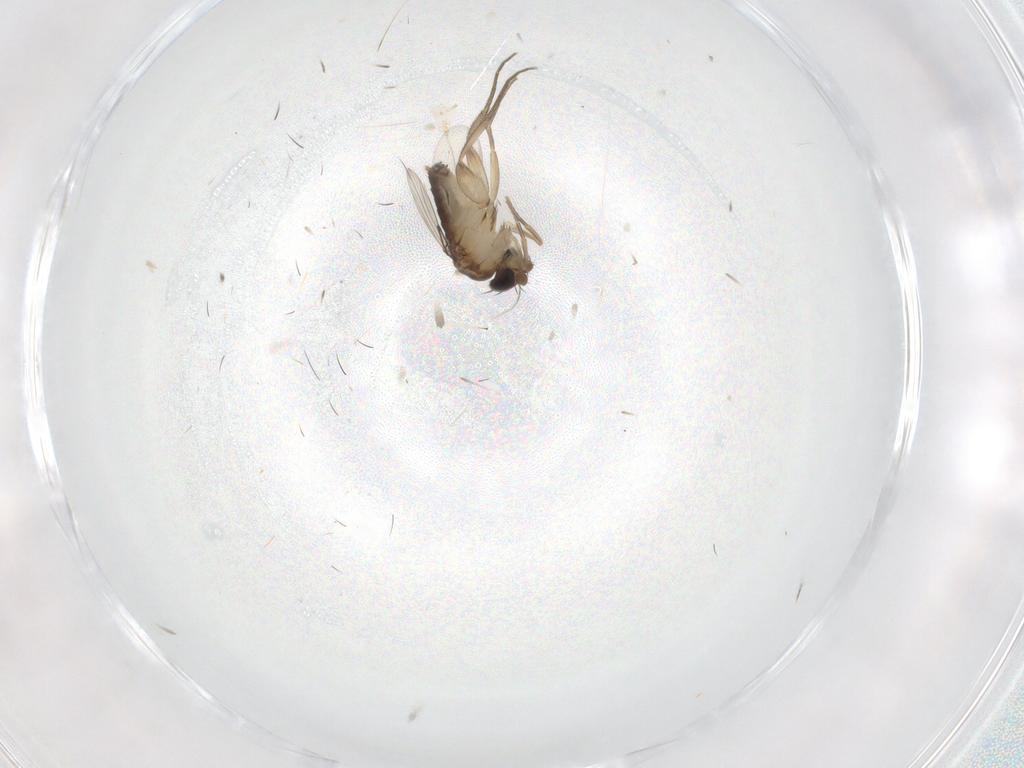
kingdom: Animalia
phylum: Arthropoda
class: Insecta
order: Diptera
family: Phoridae
